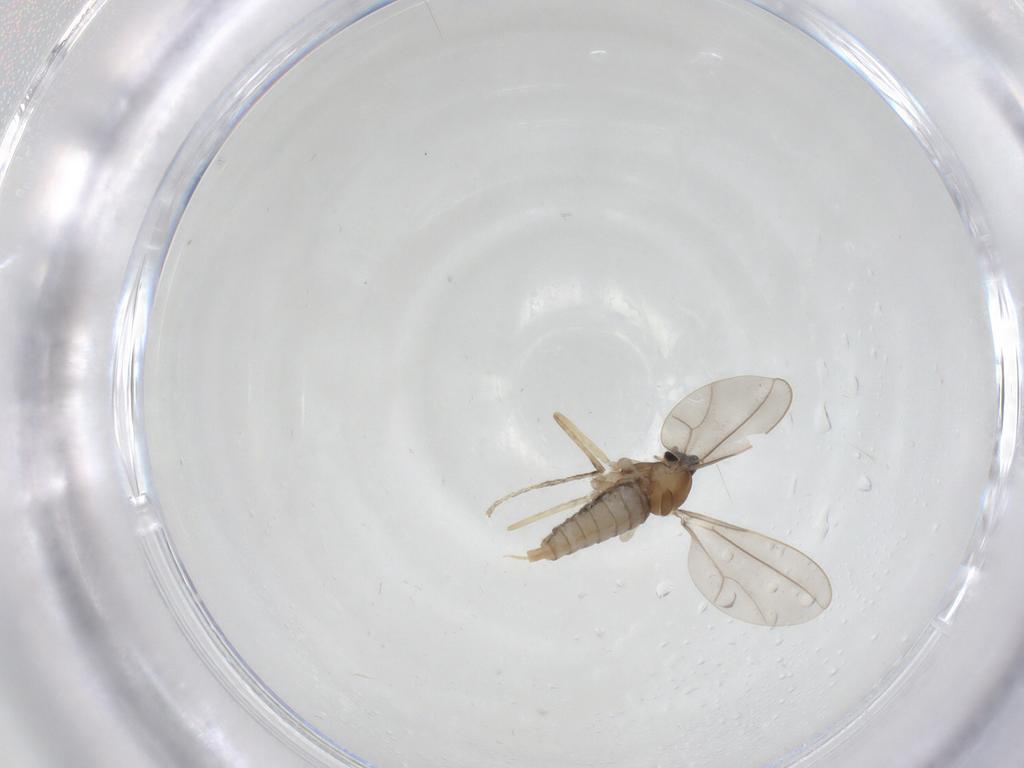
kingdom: Animalia
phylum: Arthropoda
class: Insecta
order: Diptera
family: Cecidomyiidae
